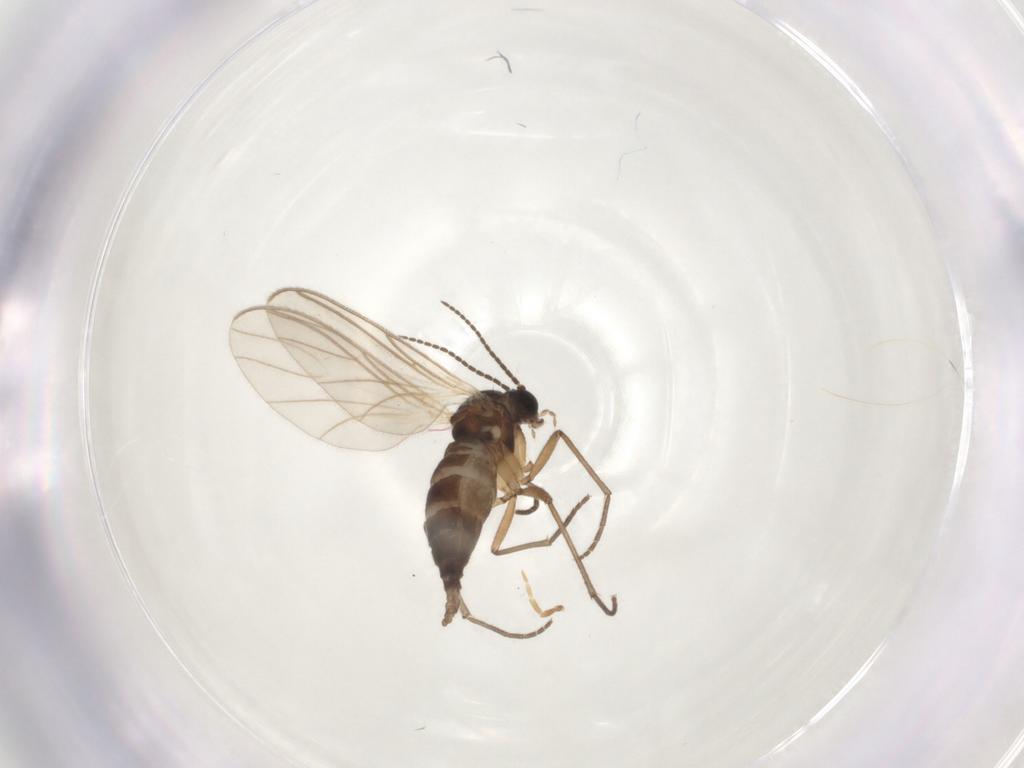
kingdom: Animalia
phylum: Arthropoda
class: Insecta
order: Diptera
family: Sciaridae
